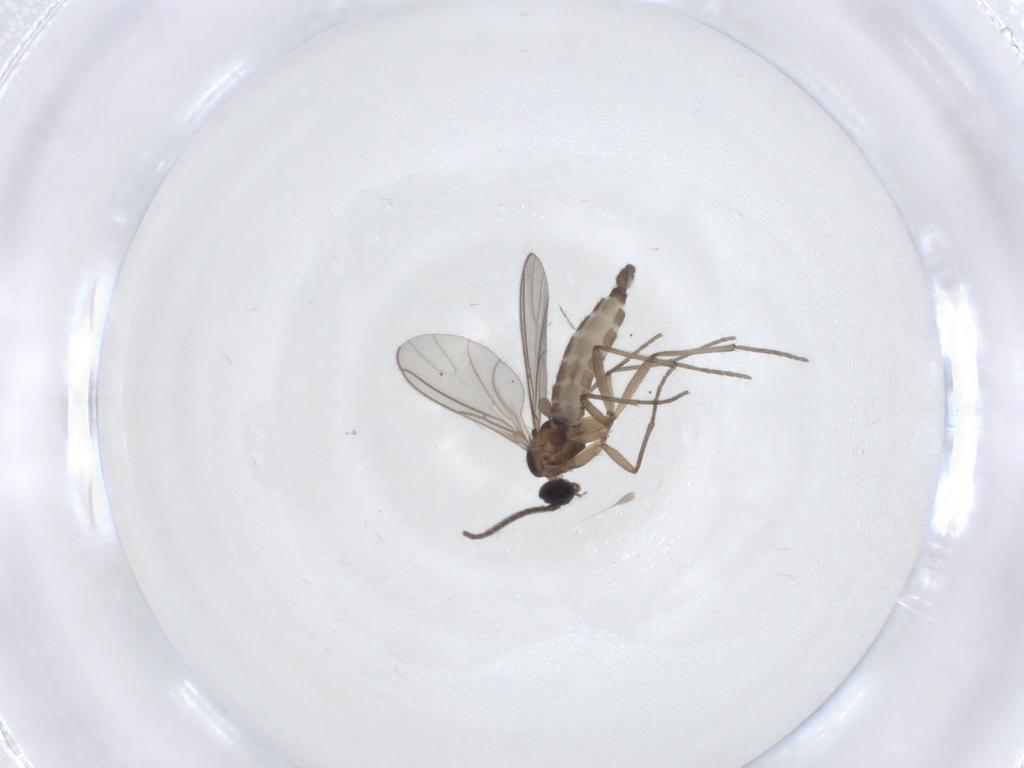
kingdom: Animalia
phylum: Arthropoda
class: Insecta
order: Diptera
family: Sciaridae
